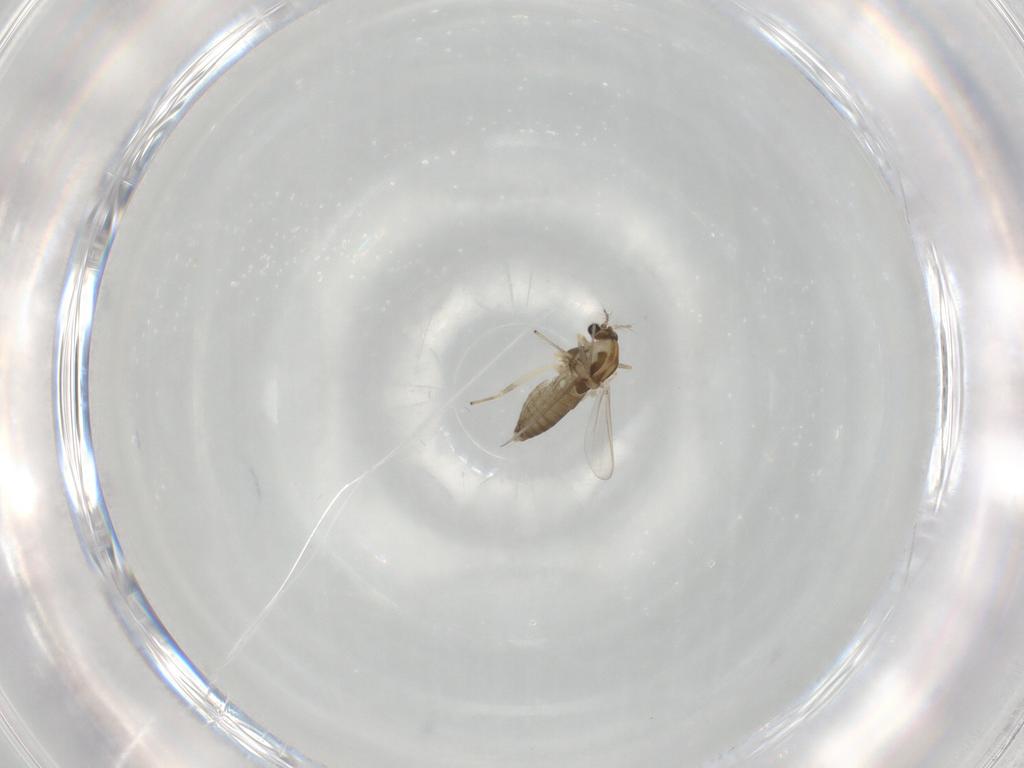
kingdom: Animalia
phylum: Arthropoda
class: Insecta
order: Diptera
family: Chironomidae
